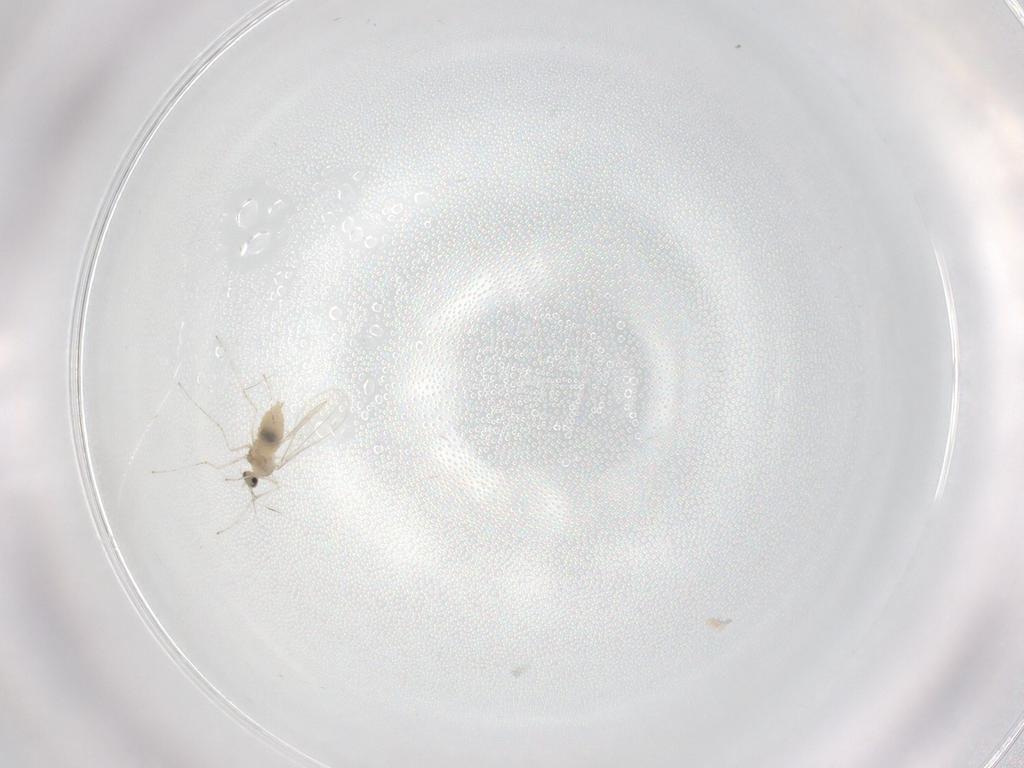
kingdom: Animalia
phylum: Arthropoda
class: Insecta
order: Diptera
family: Cecidomyiidae
